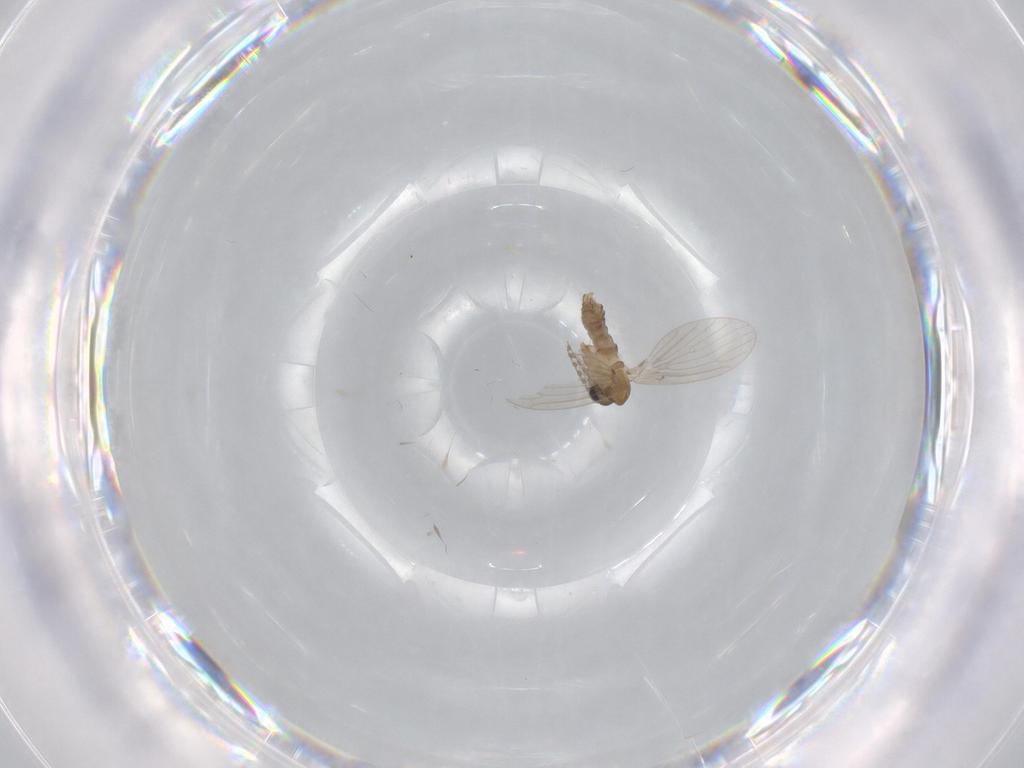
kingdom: Animalia
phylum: Arthropoda
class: Insecta
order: Diptera
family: Psychodidae
